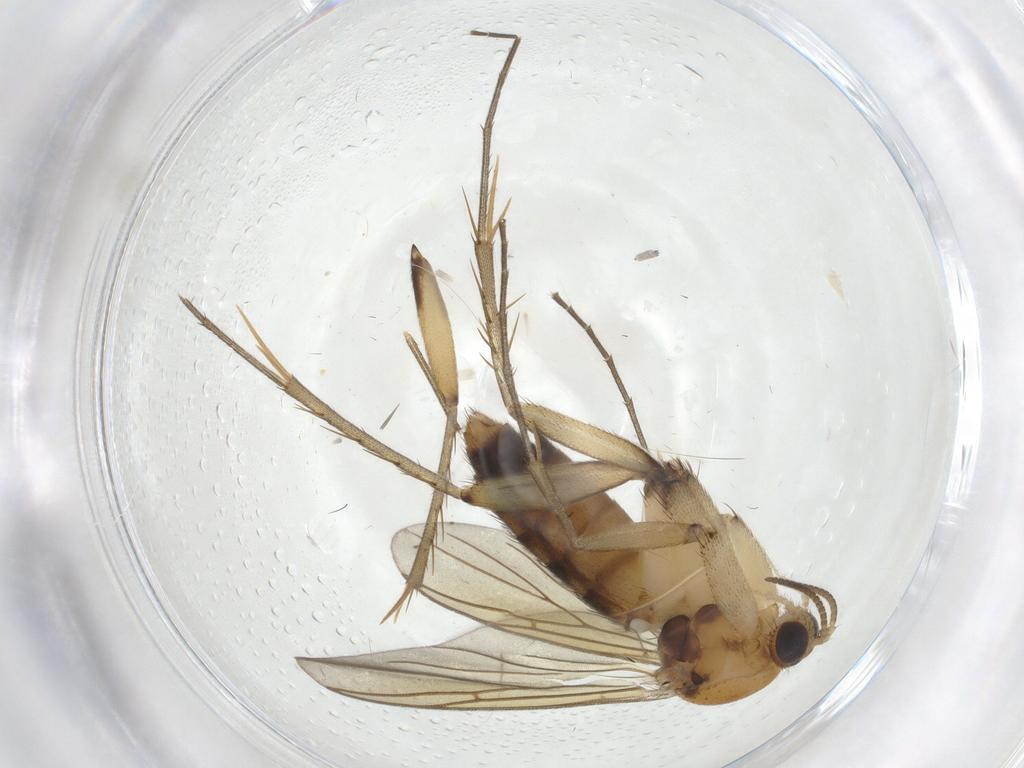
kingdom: Animalia
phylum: Arthropoda
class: Insecta
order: Diptera
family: Mycetophilidae
